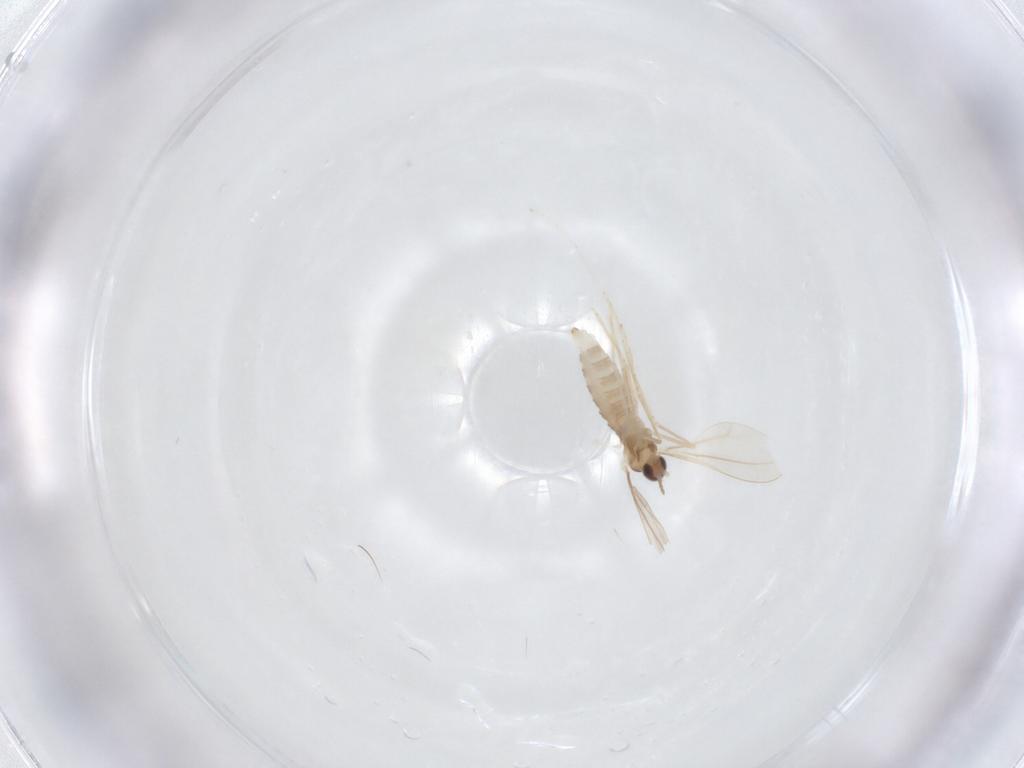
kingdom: Animalia
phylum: Arthropoda
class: Insecta
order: Diptera
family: Cecidomyiidae
